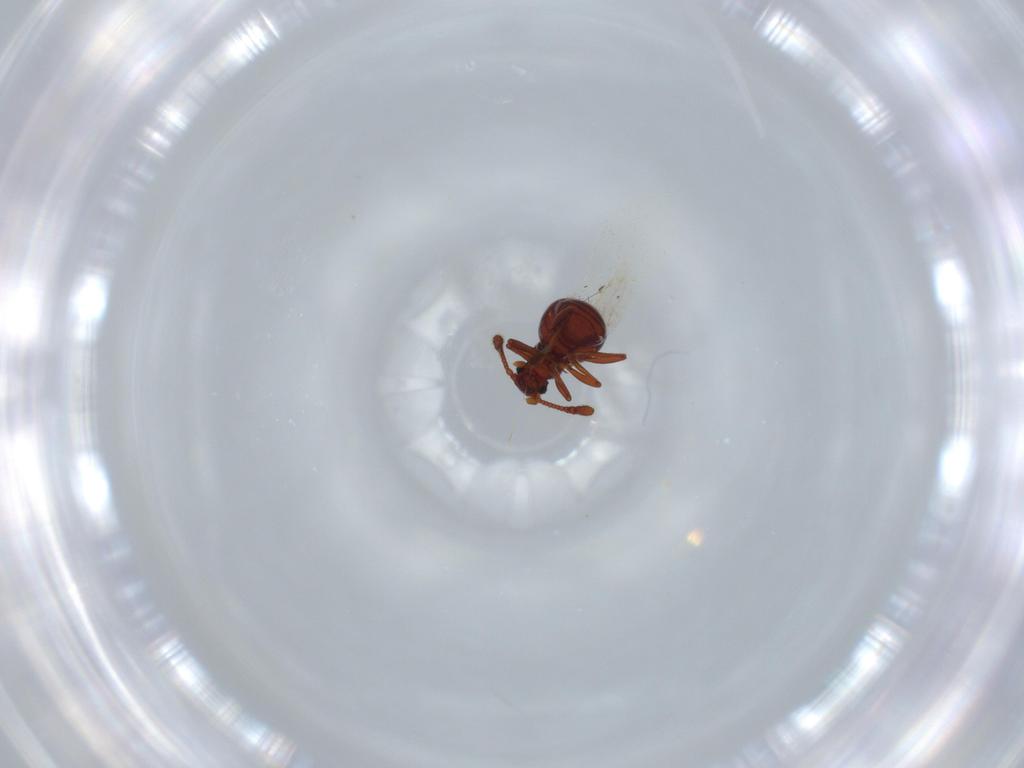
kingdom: Animalia
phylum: Arthropoda
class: Insecta
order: Coleoptera
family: Staphylinidae
